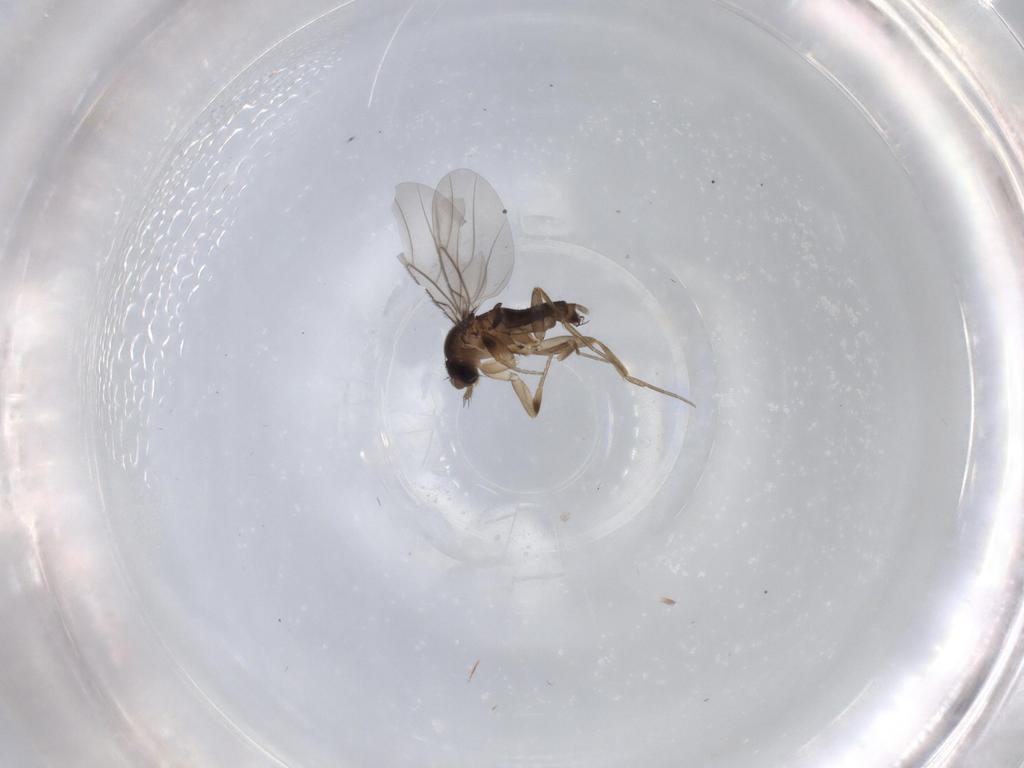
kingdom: Animalia
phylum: Arthropoda
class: Insecta
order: Diptera
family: Phoridae
